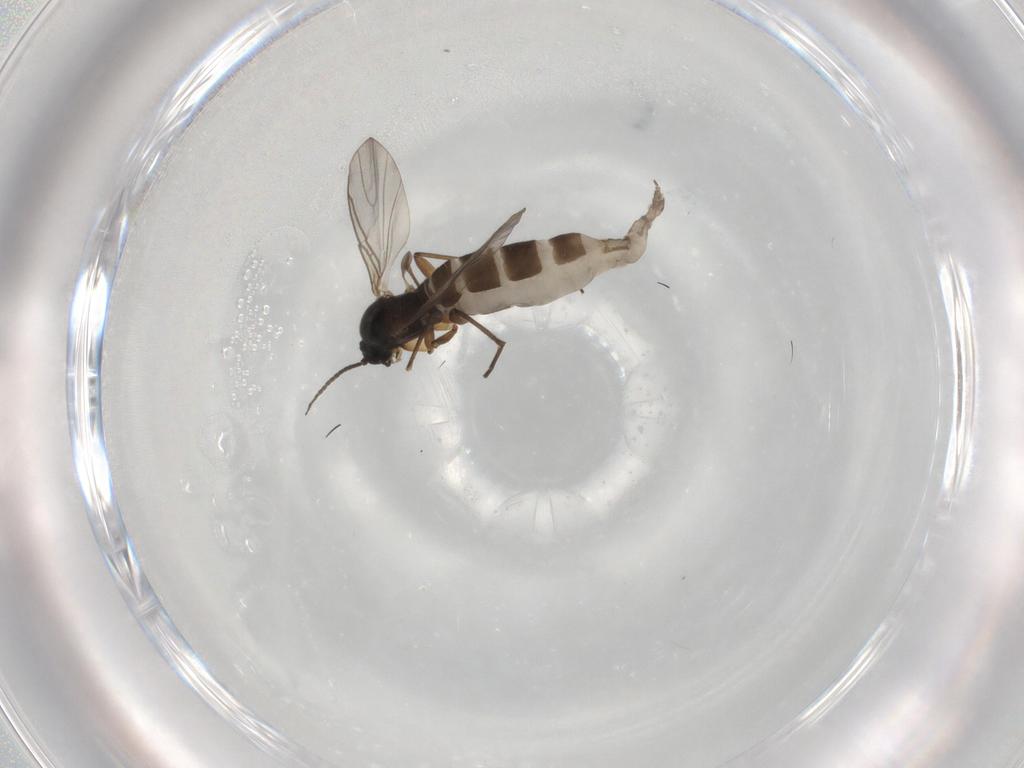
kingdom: Animalia
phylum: Arthropoda
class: Insecta
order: Diptera
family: Sciaridae
